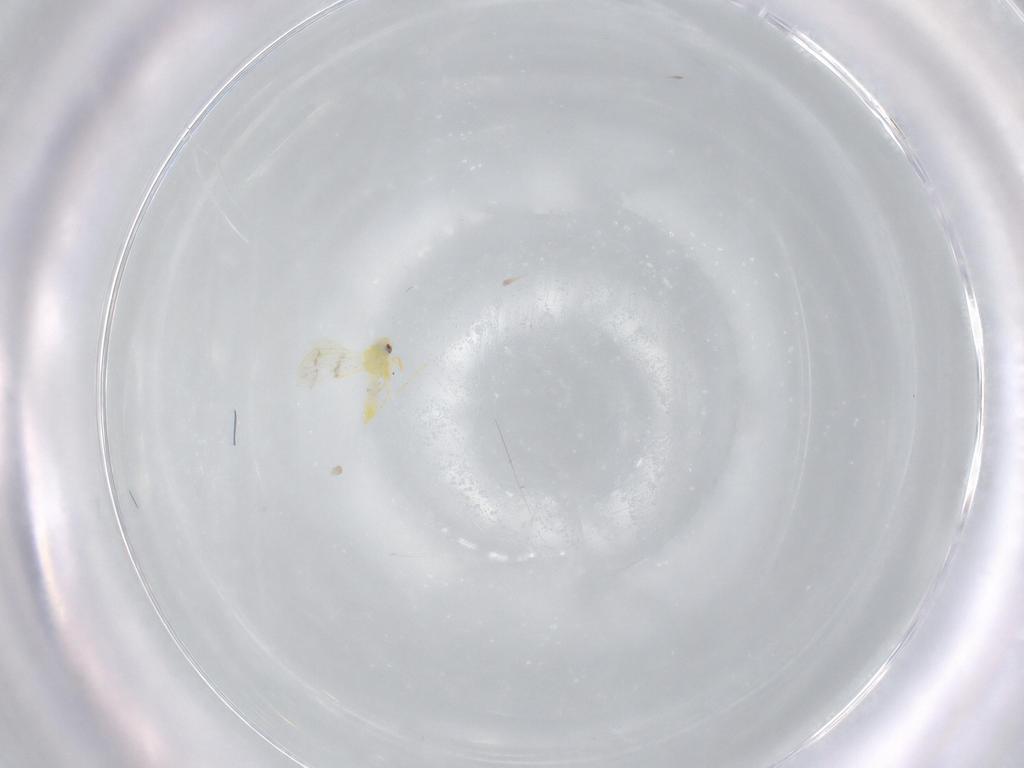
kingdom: Animalia
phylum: Arthropoda
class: Insecta
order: Hemiptera
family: Aleyrodidae
